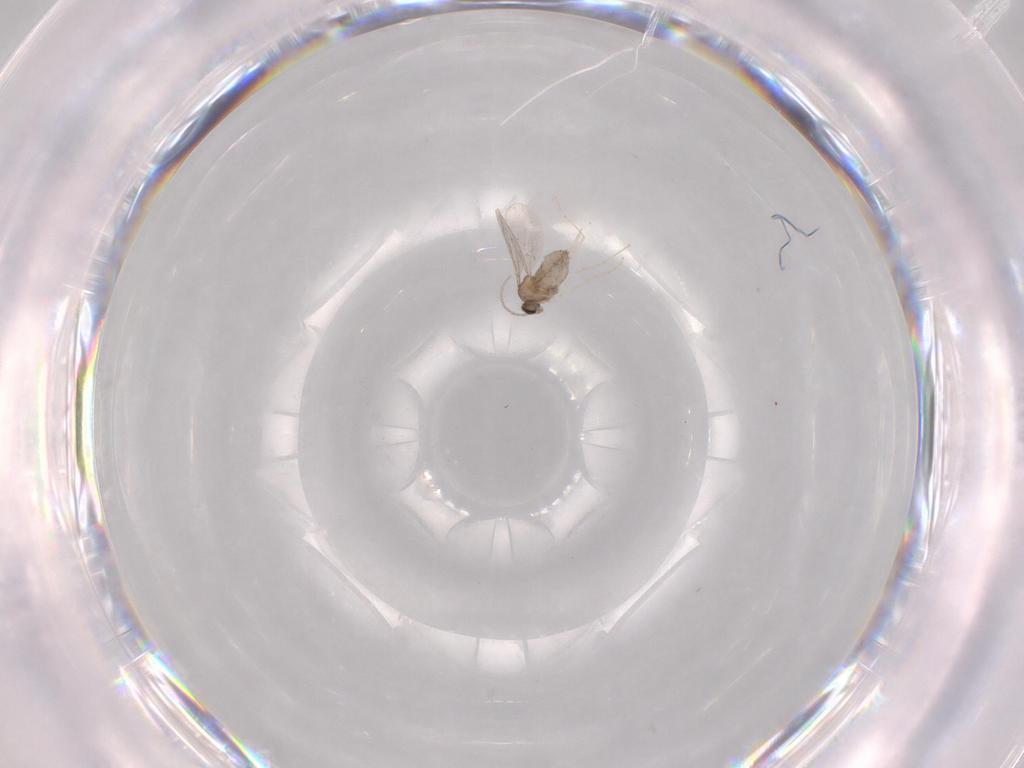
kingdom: Animalia
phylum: Arthropoda
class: Insecta
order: Diptera
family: Cecidomyiidae
